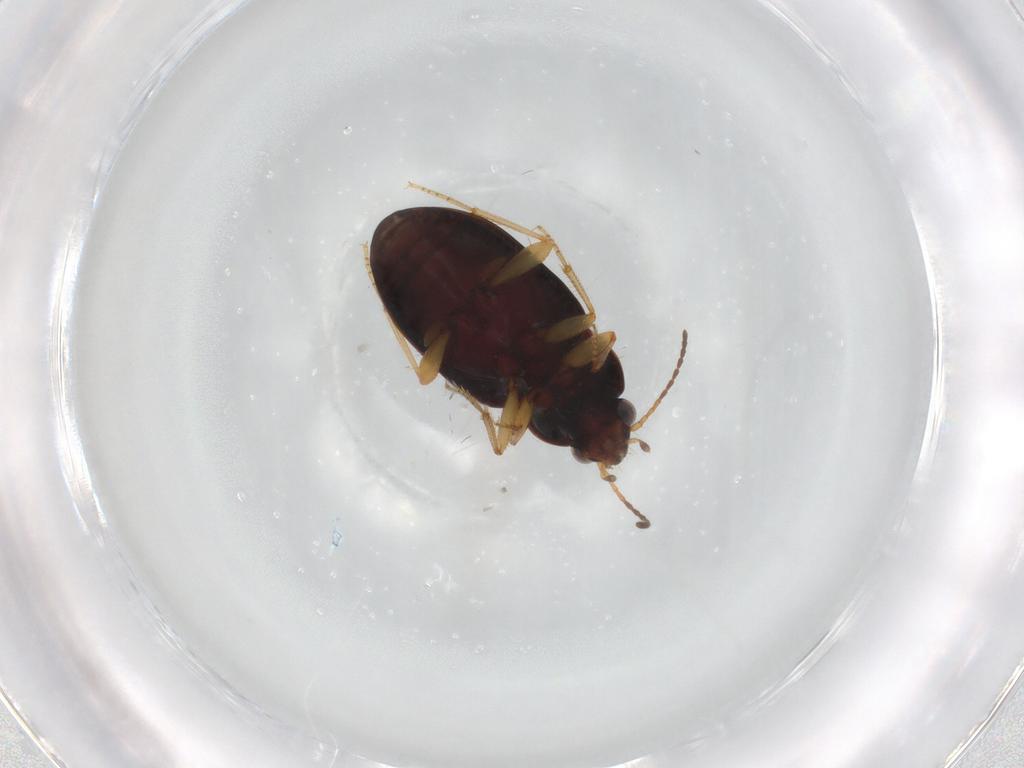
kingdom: Animalia
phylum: Arthropoda
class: Insecta
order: Coleoptera
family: Carabidae
